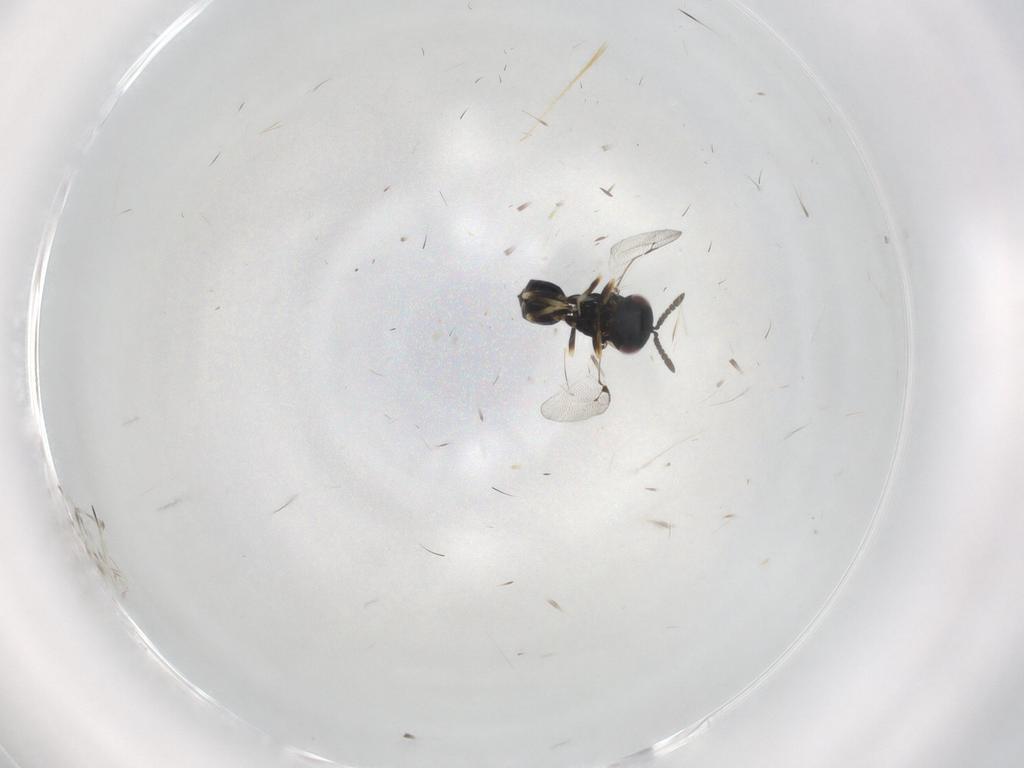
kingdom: Animalia
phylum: Arthropoda
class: Insecta
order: Hymenoptera
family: Pteromalidae
